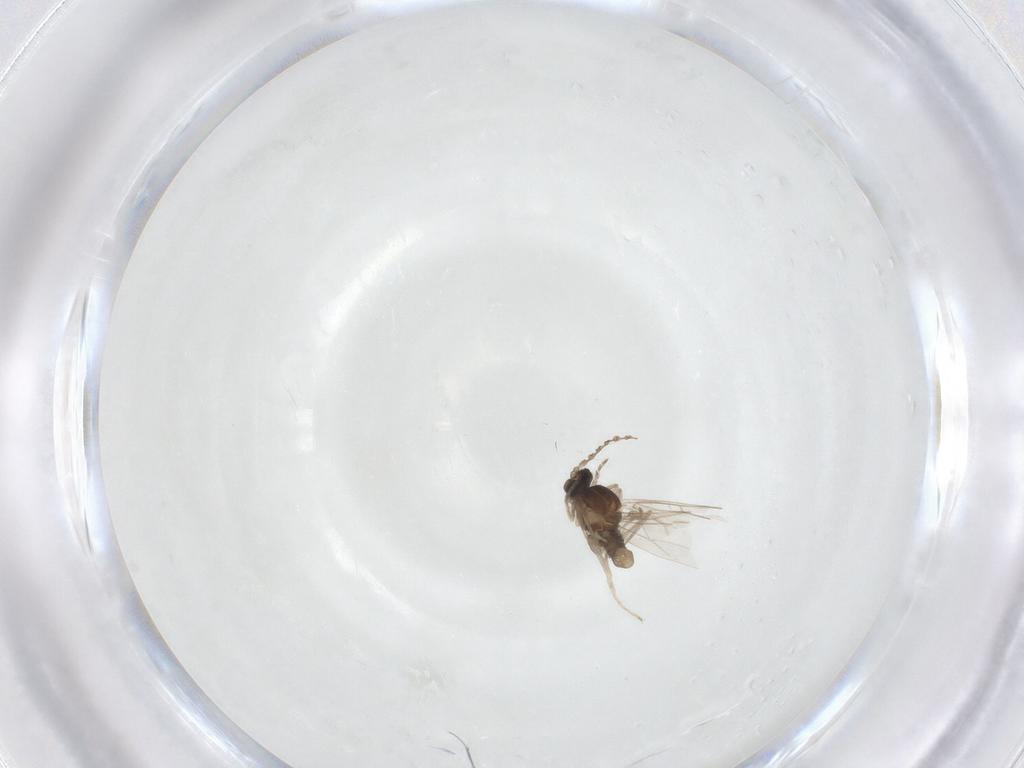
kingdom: Animalia
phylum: Arthropoda
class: Insecta
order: Diptera
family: Cecidomyiidae
